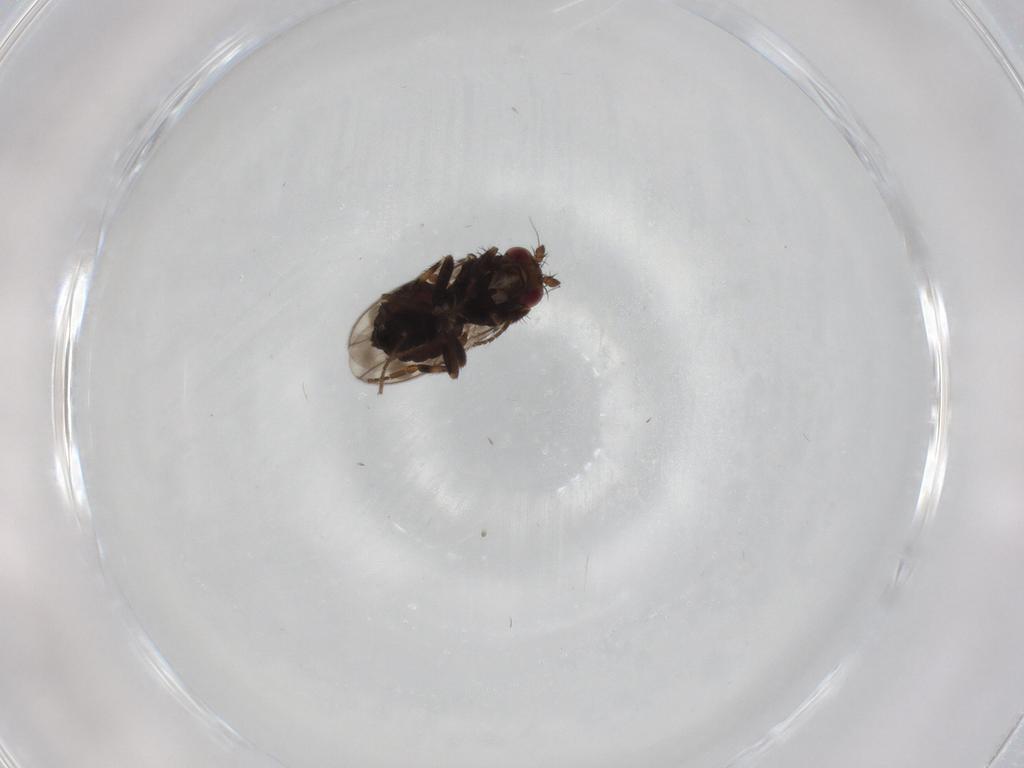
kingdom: Animalia
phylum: Arthropoda
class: Insecta
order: Diptera
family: Sphaeroceridae
